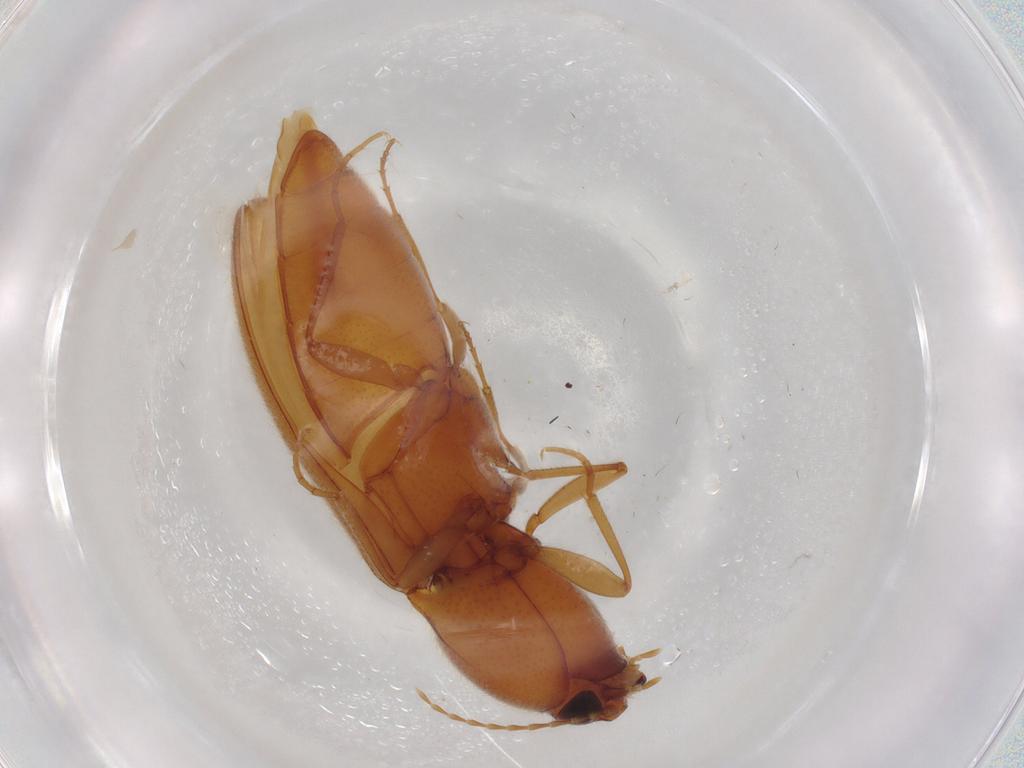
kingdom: Animalia
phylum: Arthropoda
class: Insecta
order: Coleoptera
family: Elateridae
